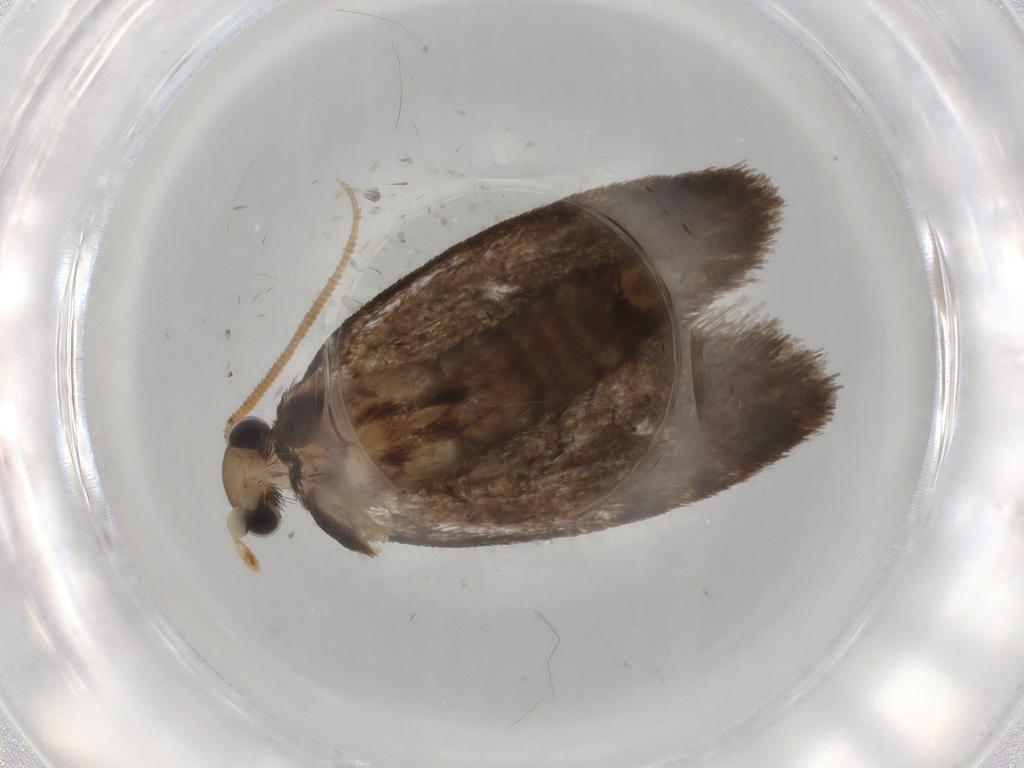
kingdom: Animalia
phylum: Arthropoda
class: Insecta
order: Lepidoptera
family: Tineidae
